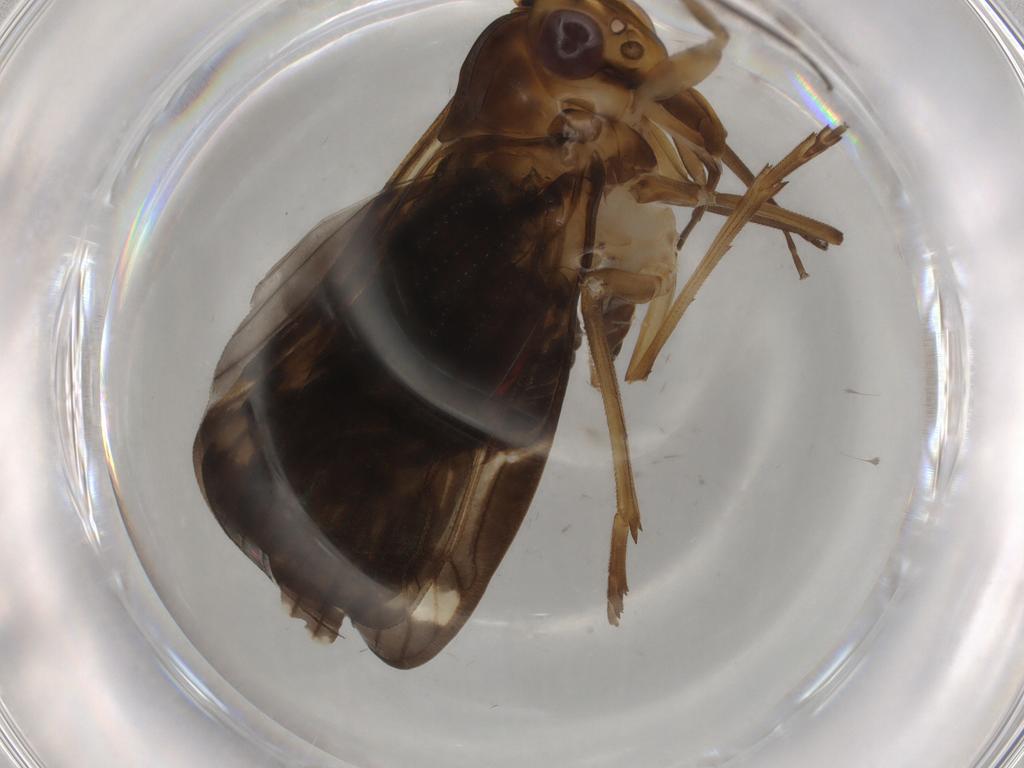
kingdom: Animalia
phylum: Arthropoda
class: Insecta
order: Hemiptera
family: Cixiidae
